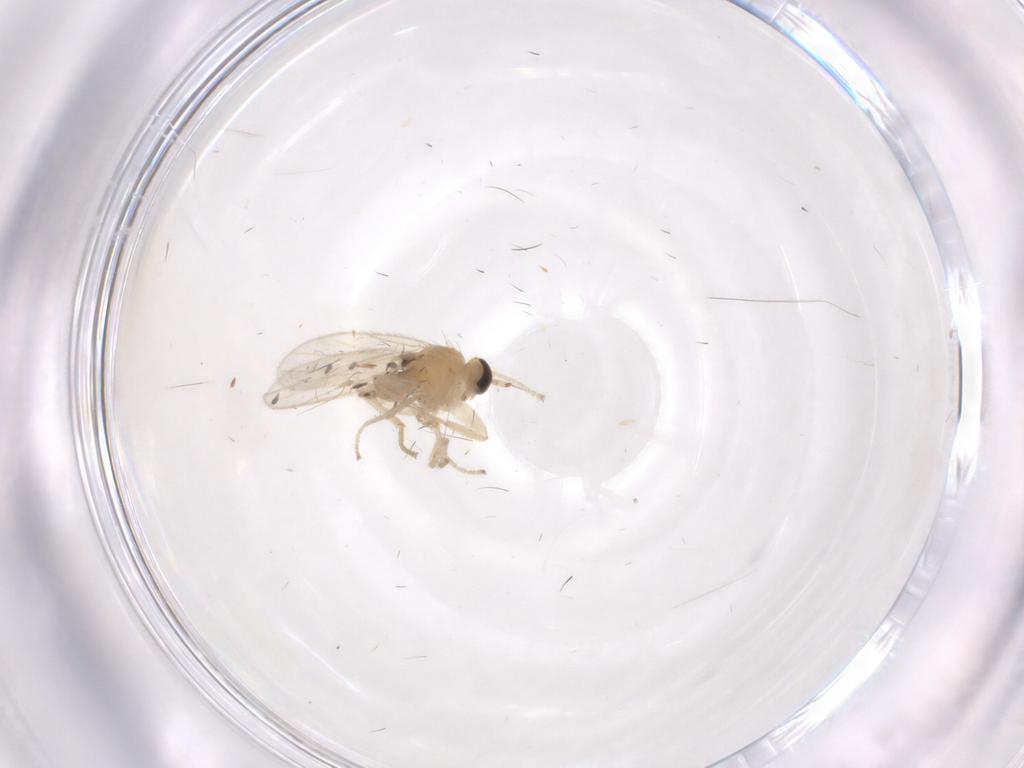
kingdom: Animalia
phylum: Arthropoda
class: Insecta
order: Diptera
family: Hybotidae
